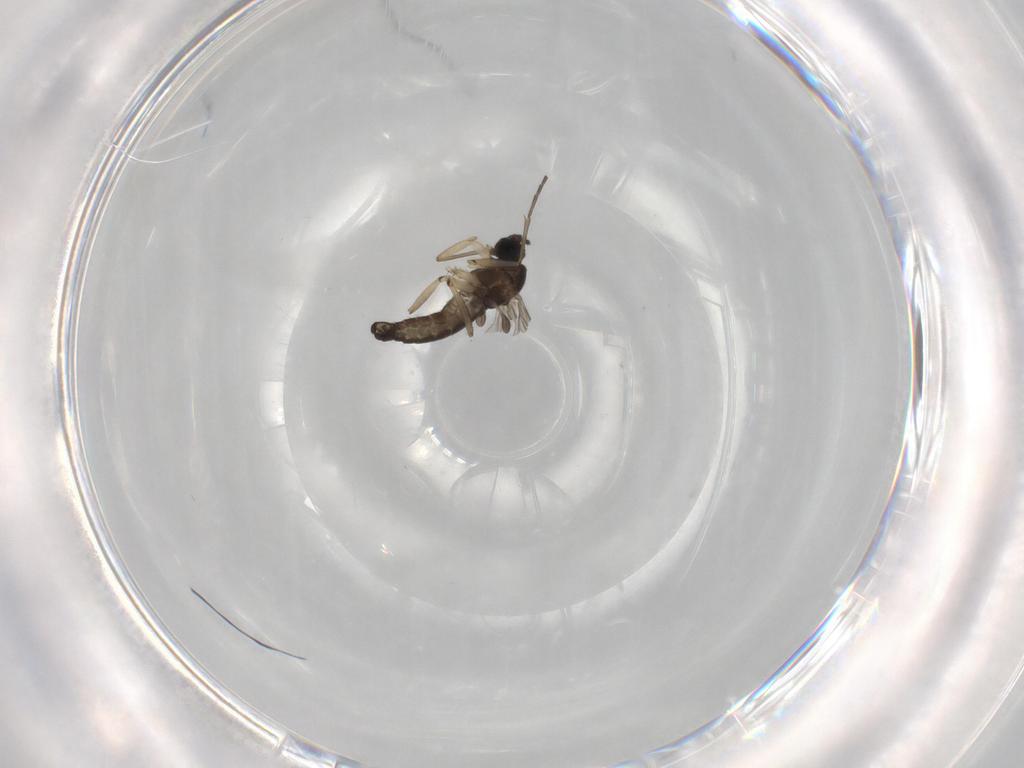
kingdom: Animalia
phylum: Arthropoda
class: Insecta
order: Diptera
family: Sciaridae
